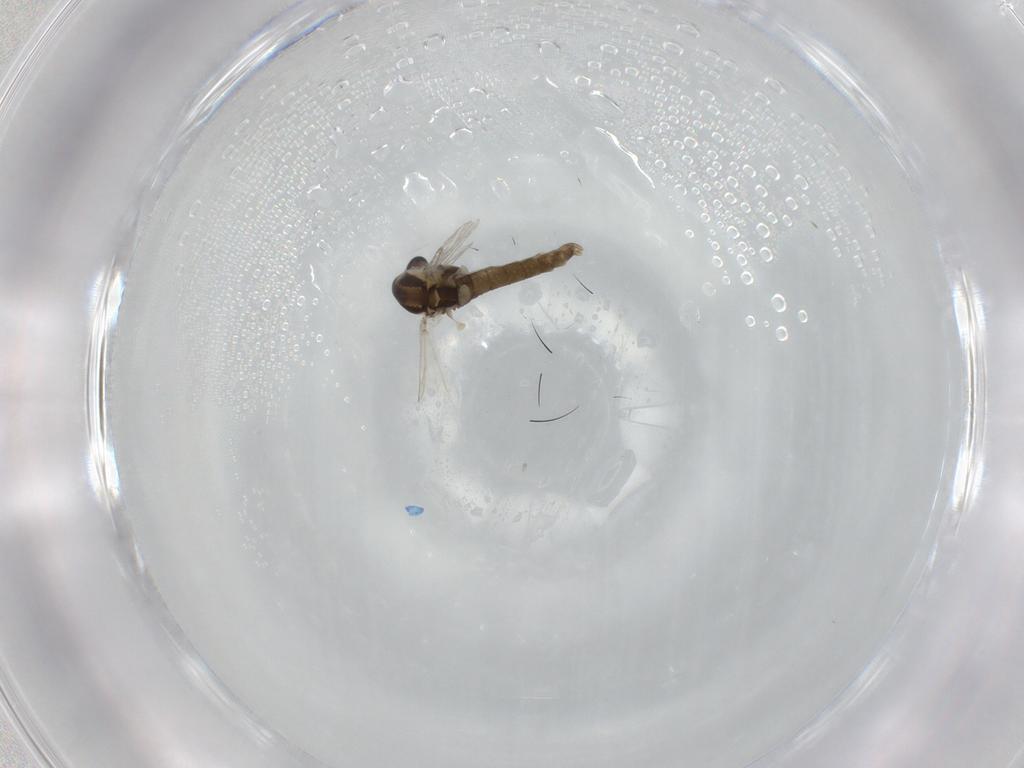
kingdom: Animalia
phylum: Arthropoda
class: Insecta
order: Diptera
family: Chironomidae
